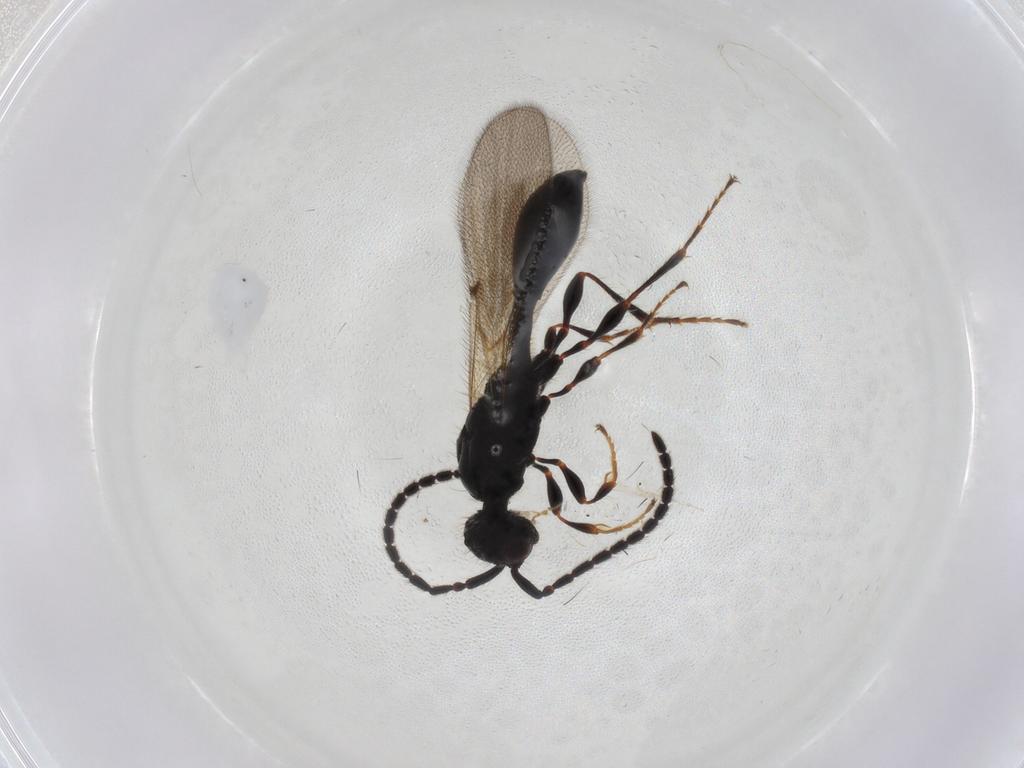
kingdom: Animalia
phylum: Arthropoda
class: Insecta
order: Hymenoptera
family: Diapriidae
